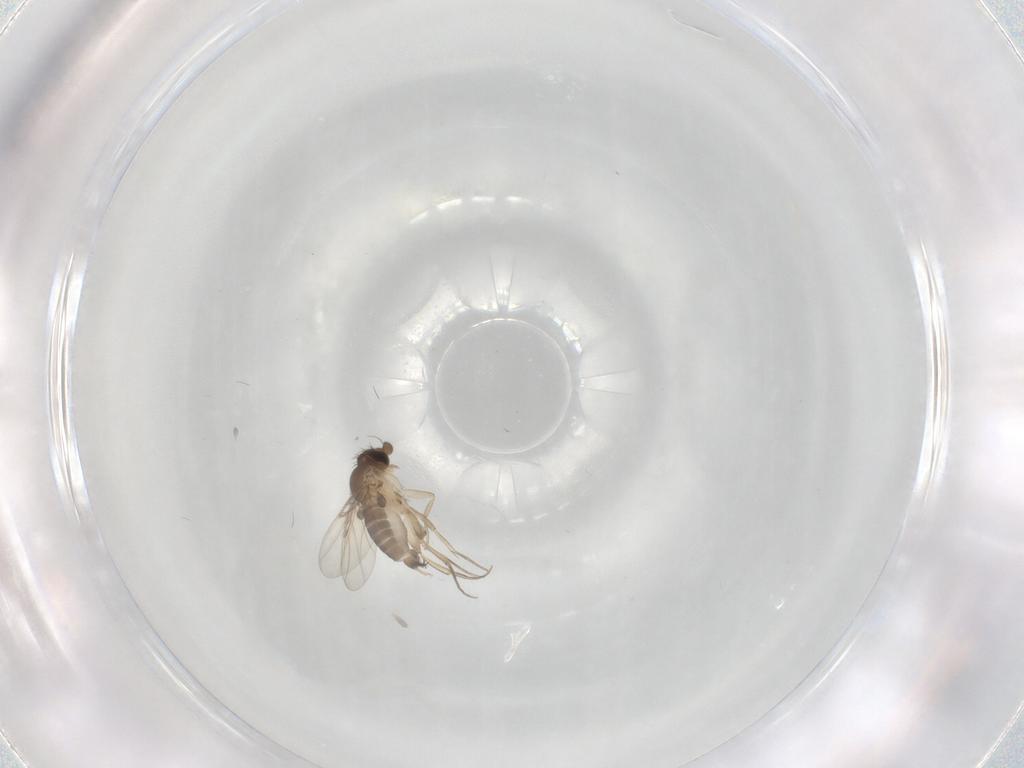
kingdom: Animalia
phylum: Arthropoda
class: Insecta
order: Diptera
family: Phoridae
